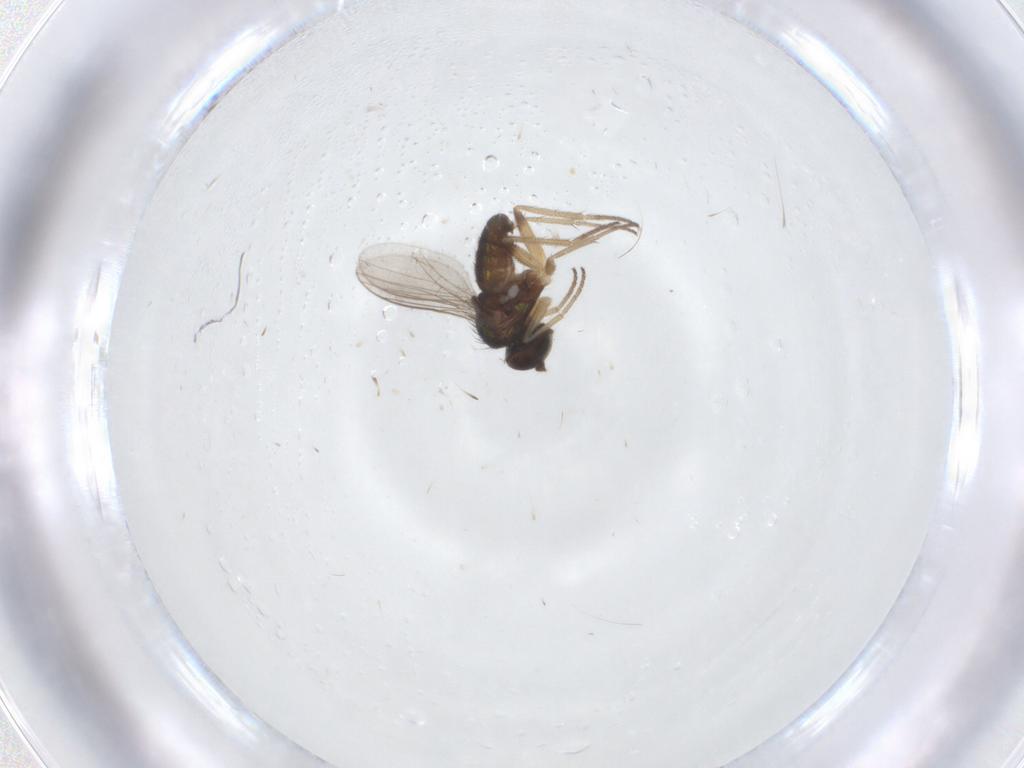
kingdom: Animalia
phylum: Arthropoda
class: Insecta
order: Diptera
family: Dolichopodidae
